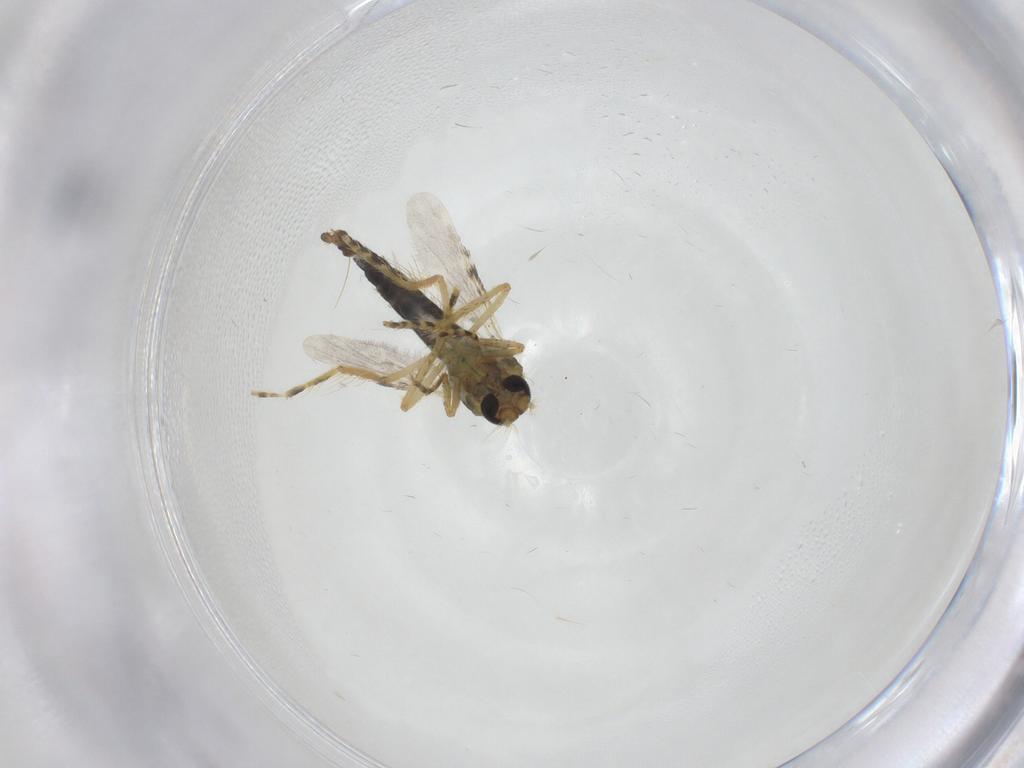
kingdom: Animalia
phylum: Arthropoda
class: Insecta
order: Diptera
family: Ceratopogonidae
